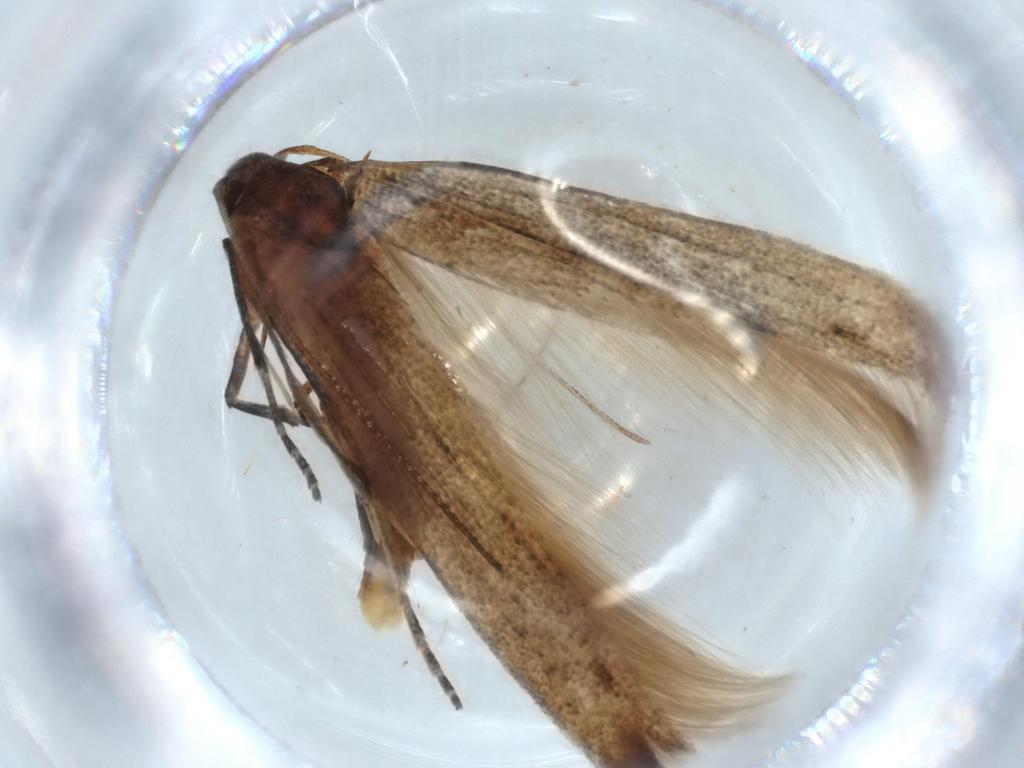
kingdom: Animalia
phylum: Arthropoda
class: Insecta
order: Lepidoptera
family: Stathmopodidae
